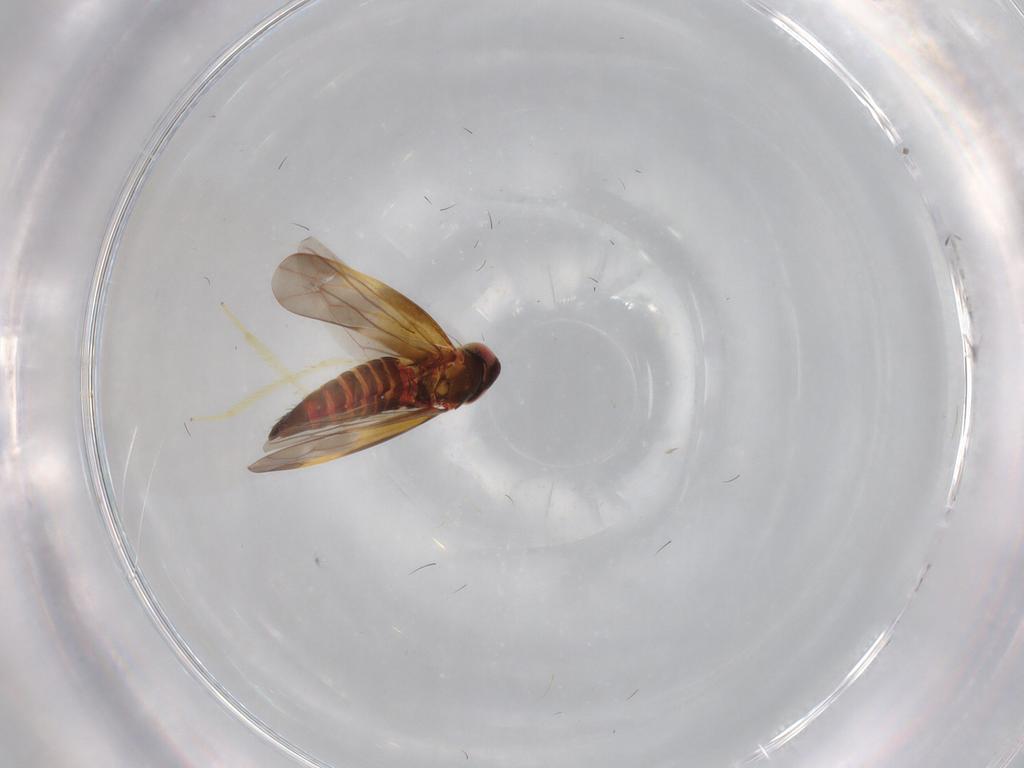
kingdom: Animalia
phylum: Arthropoda
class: Insecta
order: Hemiptera
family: Cicadellidae
